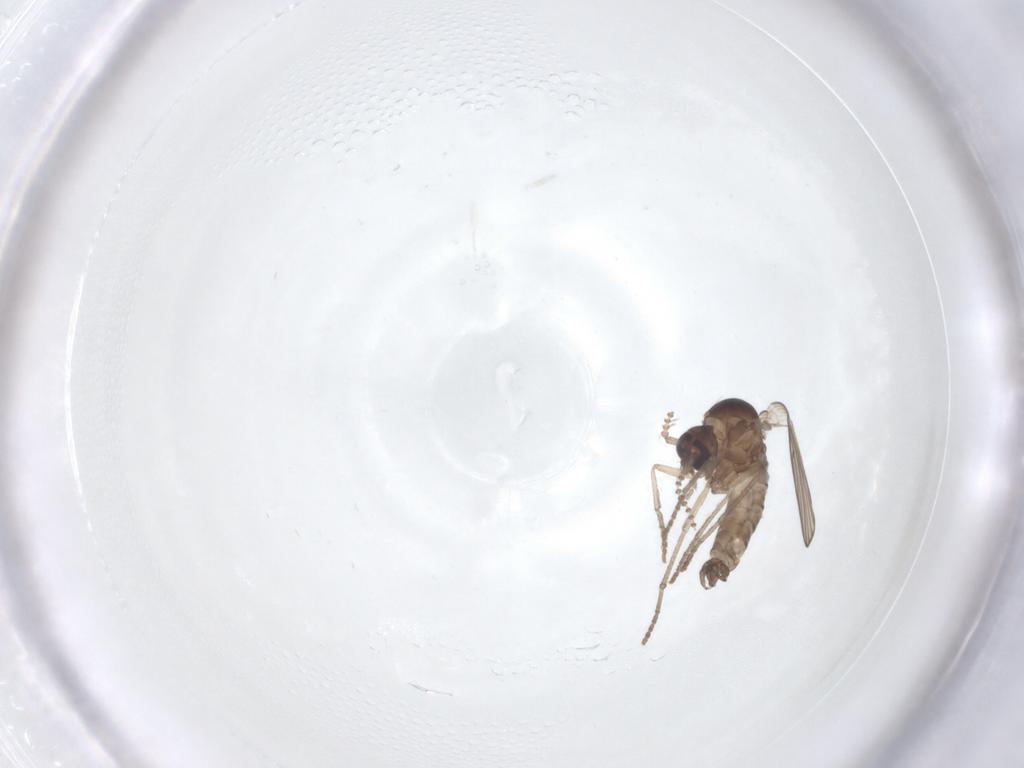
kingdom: Animalia
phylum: Arthropoda
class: Insecta
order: Diptera
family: Psychodidae
